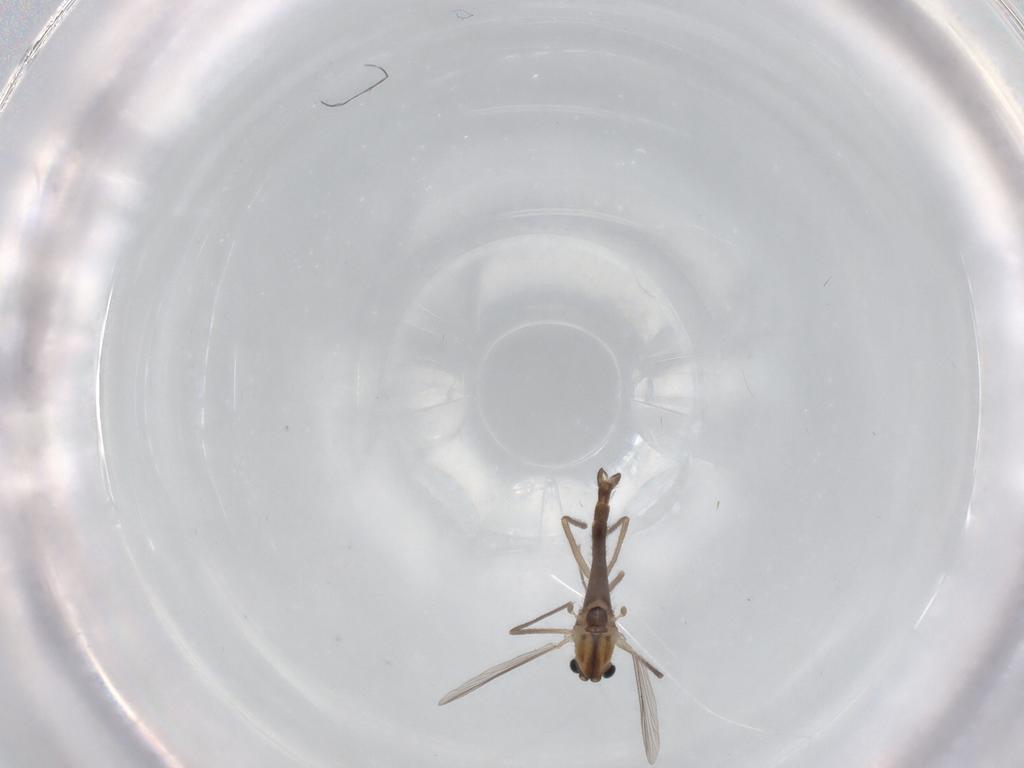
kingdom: Animalia
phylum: Arthropoda
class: Insecta
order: Diptera
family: Chironomidae
